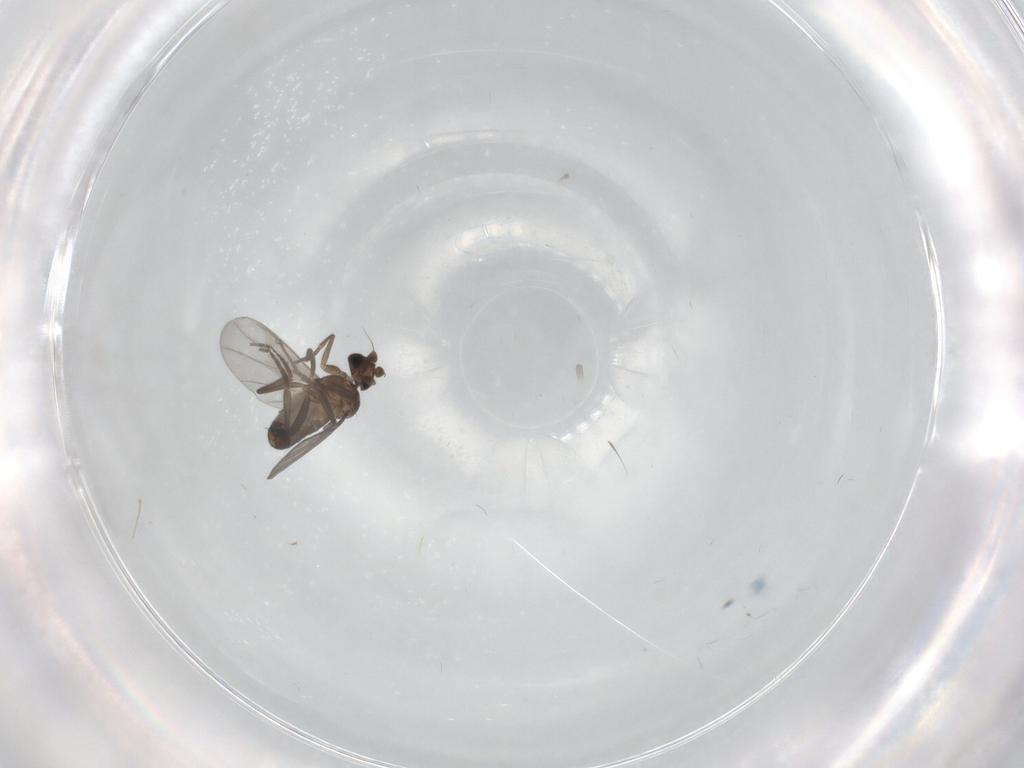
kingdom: Animalia
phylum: Arthropoda
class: Insecta
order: Diptera
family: Cecidomyiidae
